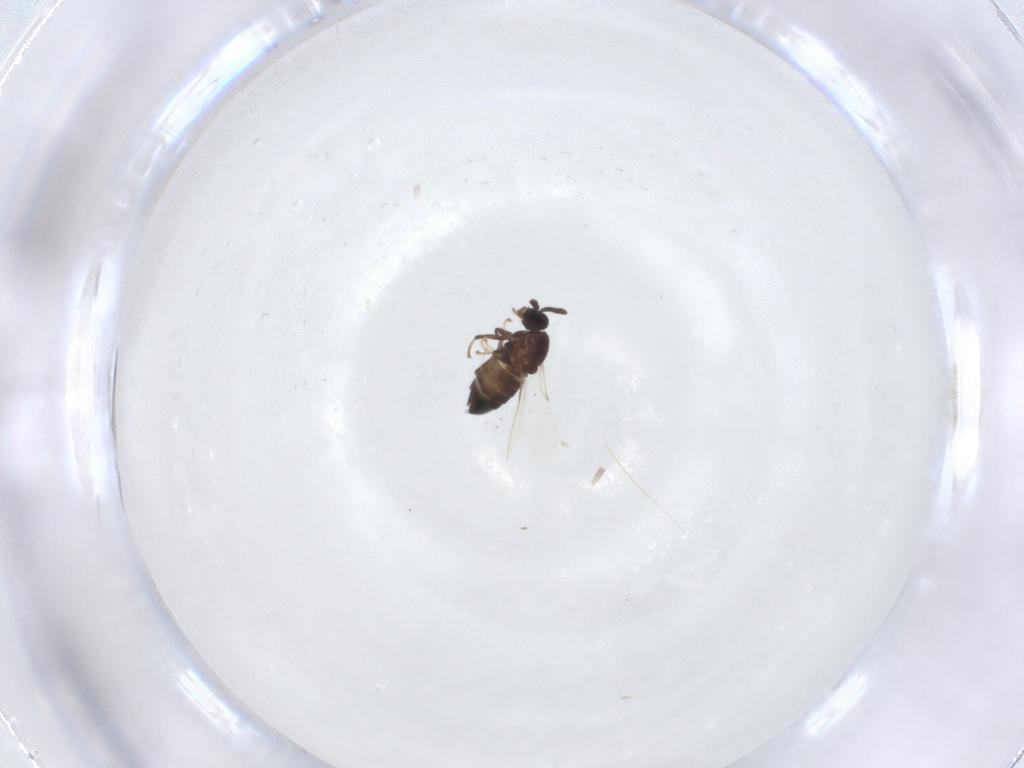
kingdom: Animalia
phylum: Arthropoda
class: Insecta
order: Diptera
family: Scatopsidae
